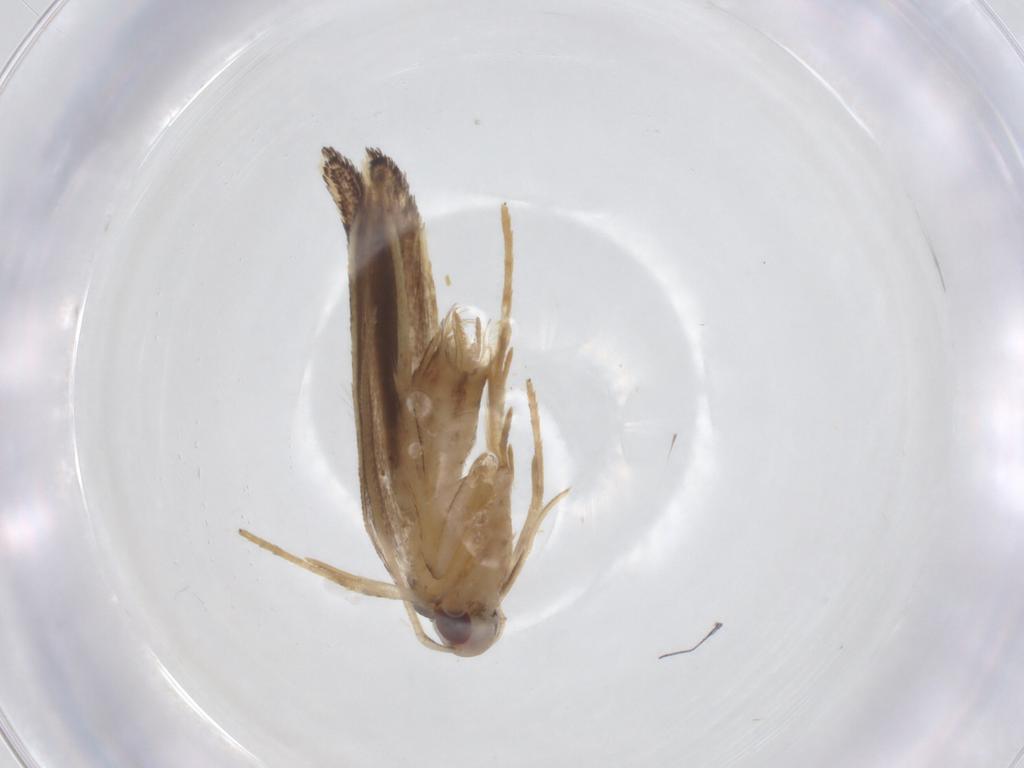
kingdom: Animalia
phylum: Arthropoda
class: Insecta
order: Lepidoptera
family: Cosmopterigidae
